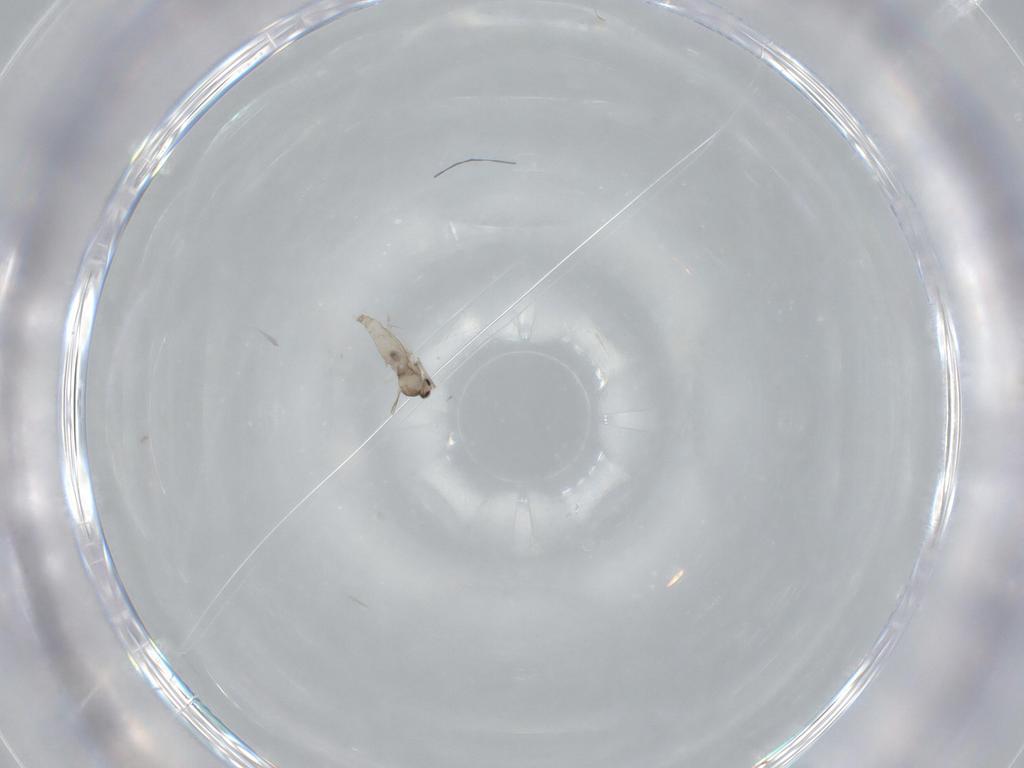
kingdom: Animalia
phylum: Arthropoda
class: Insecta
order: Diptera
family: Cecidomyiidae
